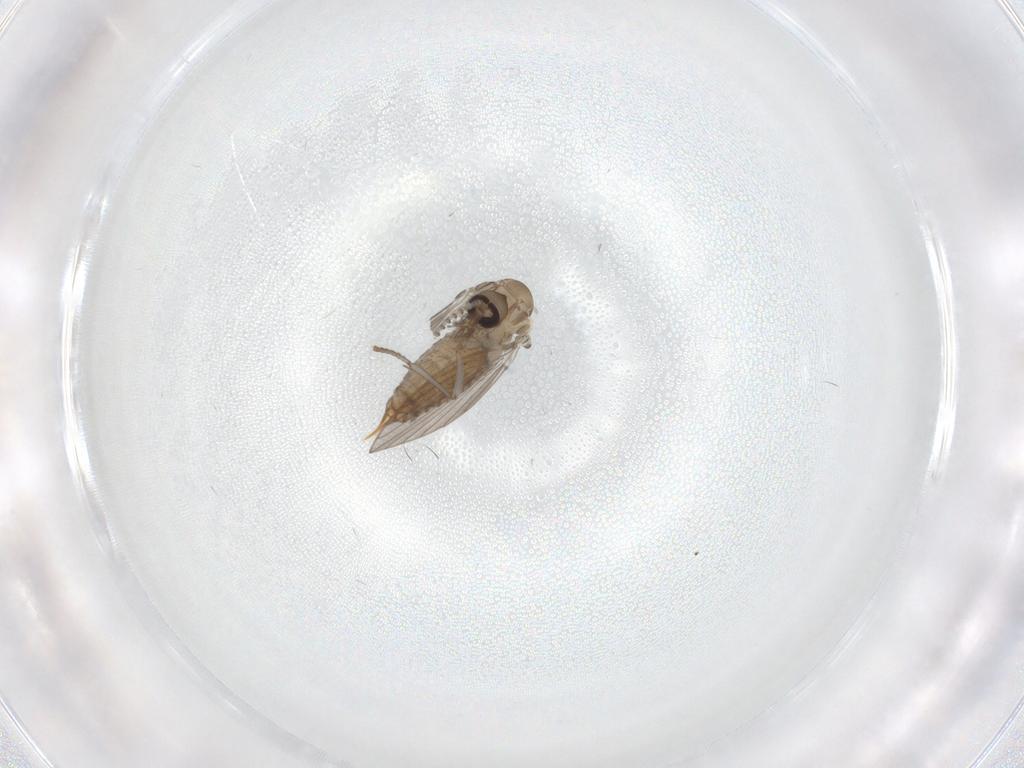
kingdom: Animalia
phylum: Arthropoda
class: Insecta
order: Diptera
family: Psychodidae
